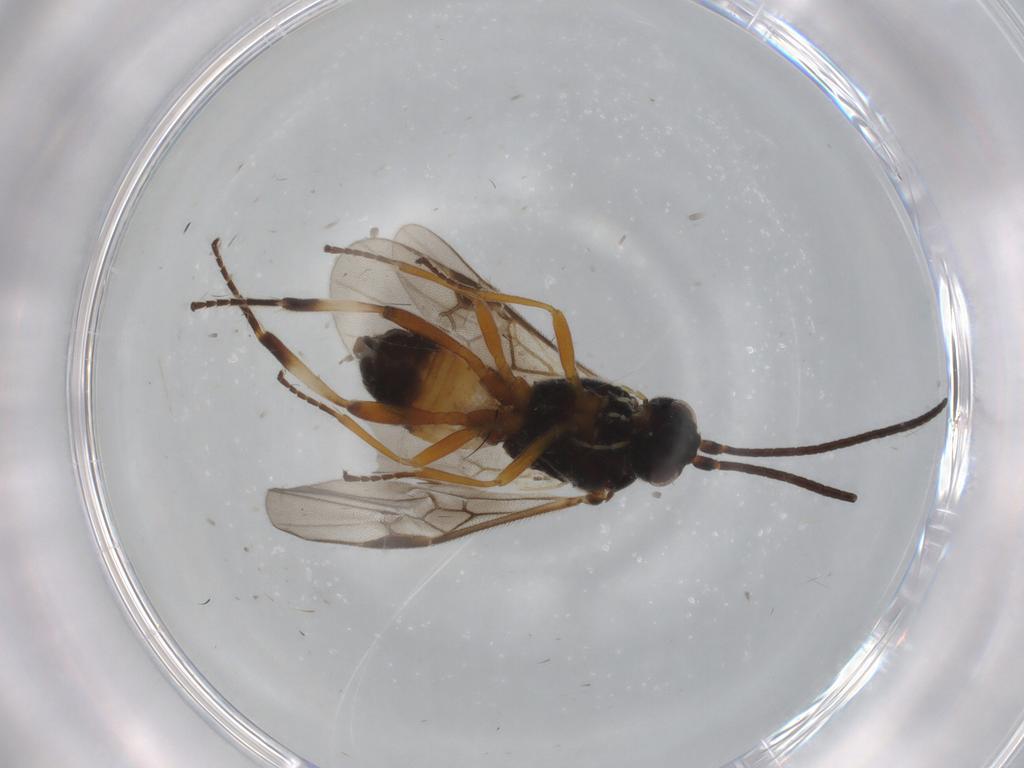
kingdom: Animalia
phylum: Arthropoda
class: Insecta
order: Hymenoptera
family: Braconidae
